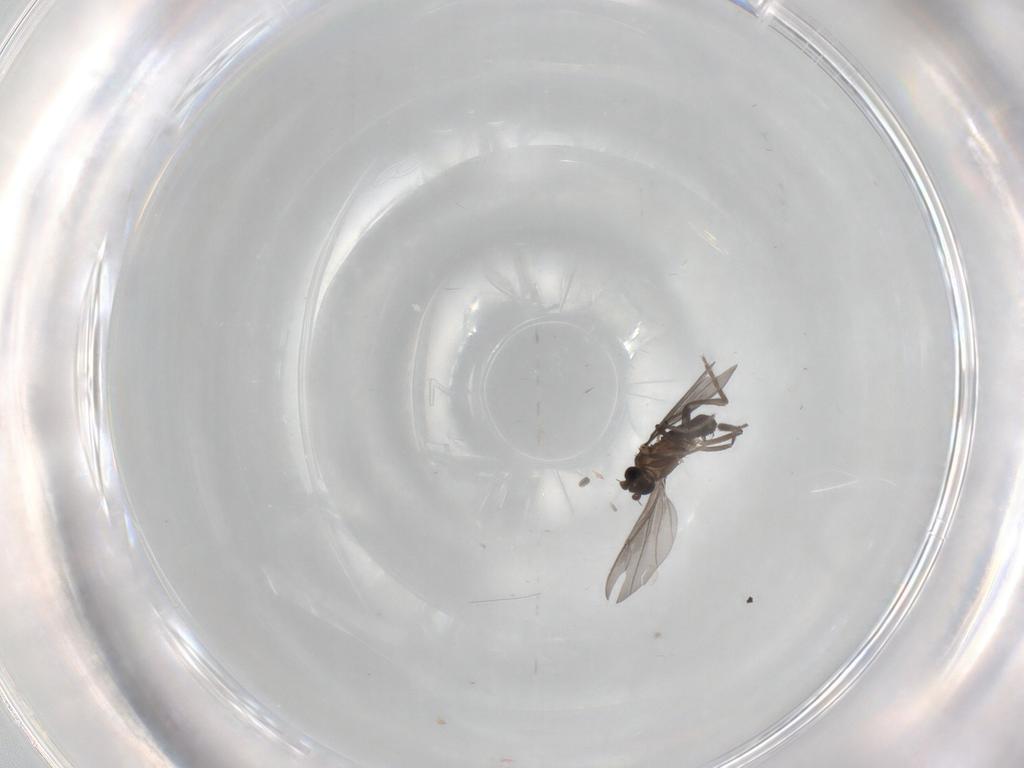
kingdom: Animalia
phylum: Arthropoda
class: Insecta
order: Diptera
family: Phoridae
